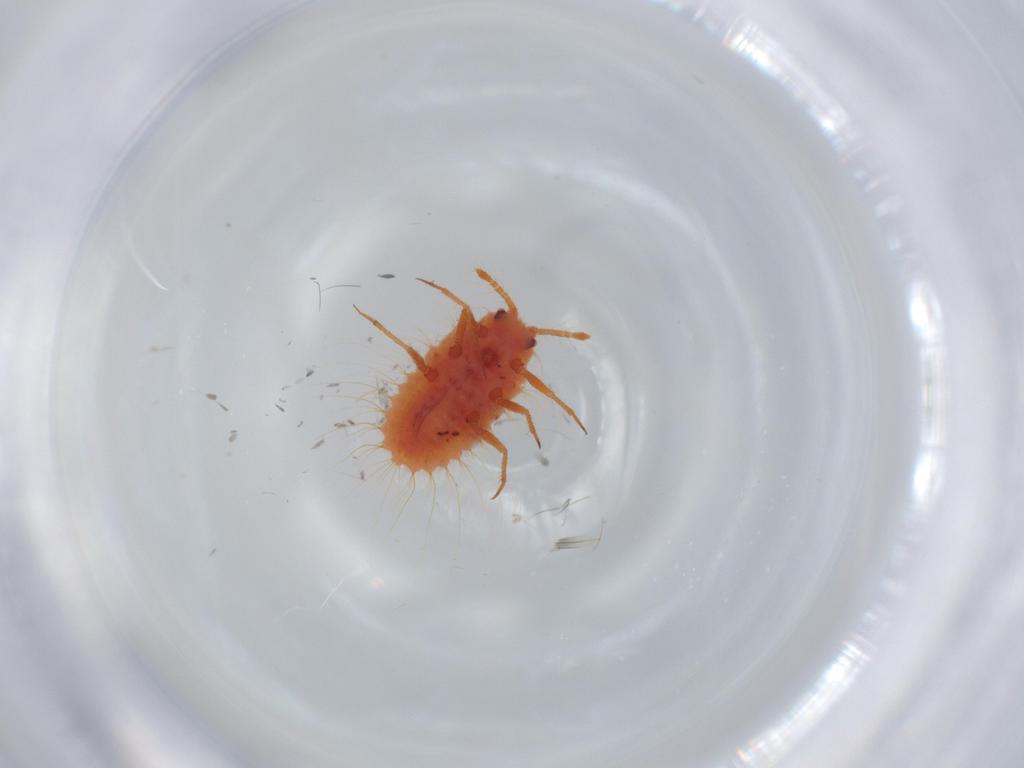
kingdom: Animalia
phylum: Arthropoda
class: Insecta
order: Hemiptera
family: Coccoidea_incertae_sedis
